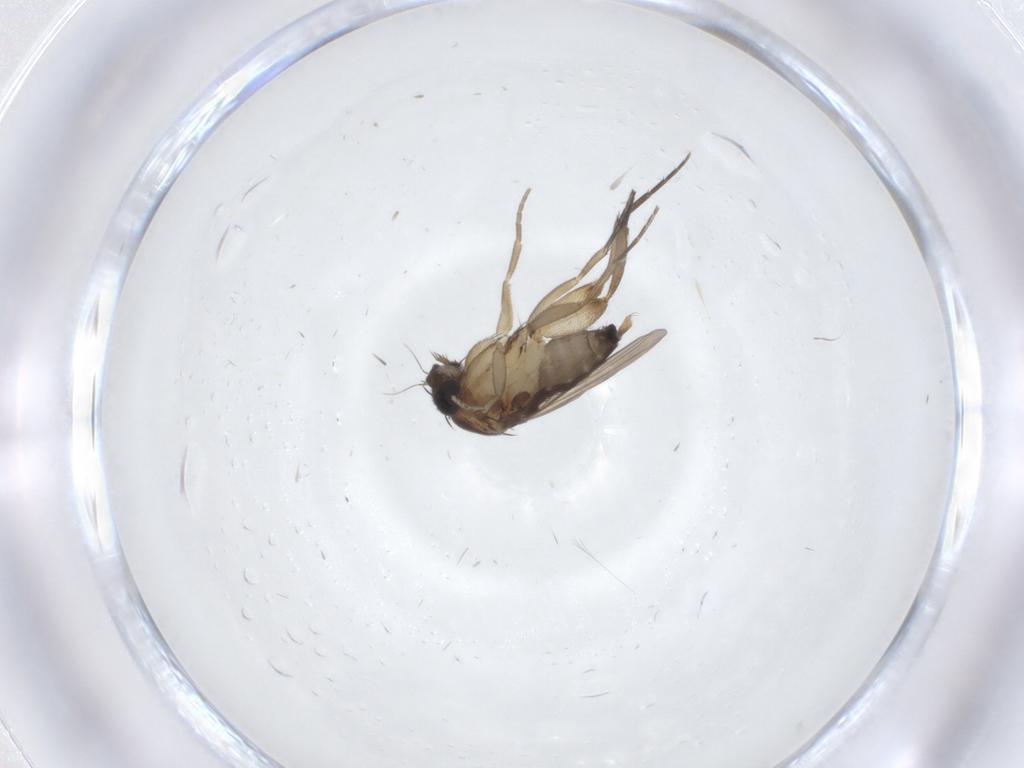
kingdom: Animalia
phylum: Arthropoda
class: Insecta
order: Diptera
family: Phoridae
